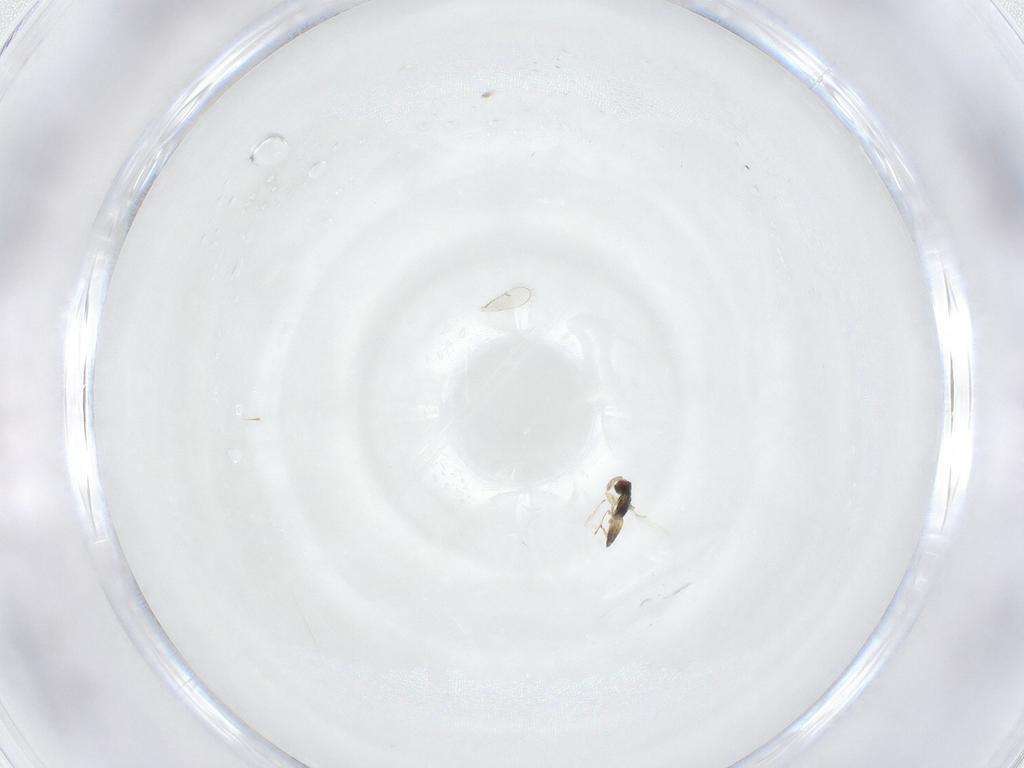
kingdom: Animalia
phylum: Arthropoda
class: Insecta
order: Hymenoptera
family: Eulophidae
